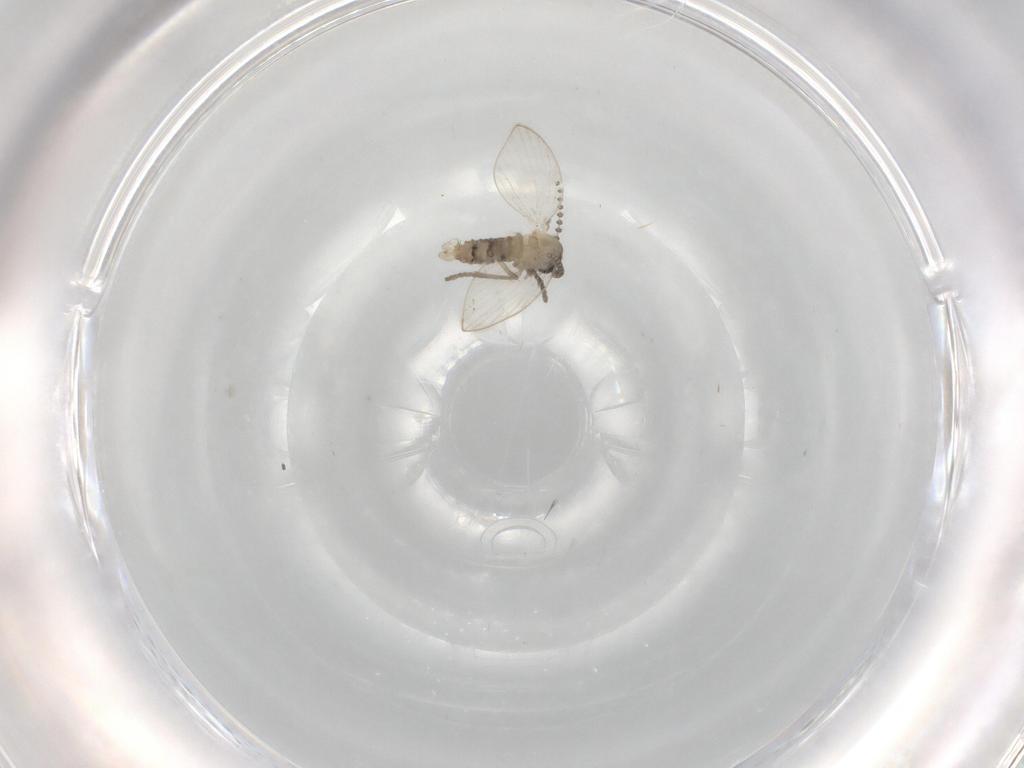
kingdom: Animalia
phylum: Arthropoda
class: Insecta
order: Diptera
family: Psychodidae
